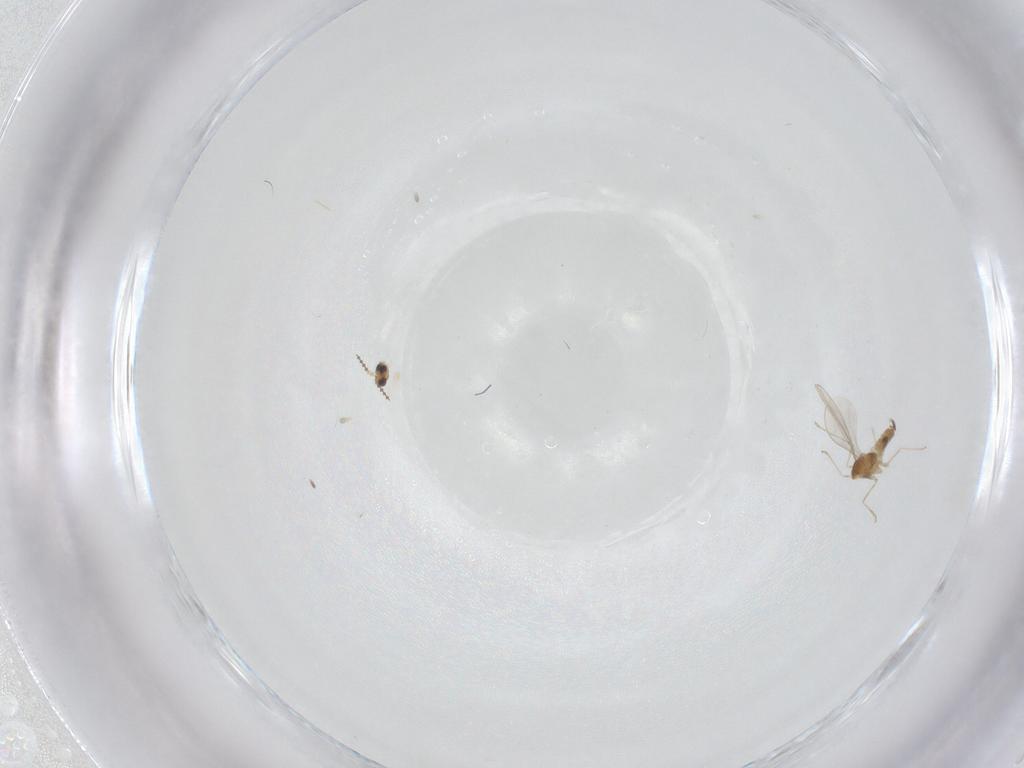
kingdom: Animalia
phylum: Arthropoda
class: Insecta
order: Diptera
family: Cecidomyiidae
